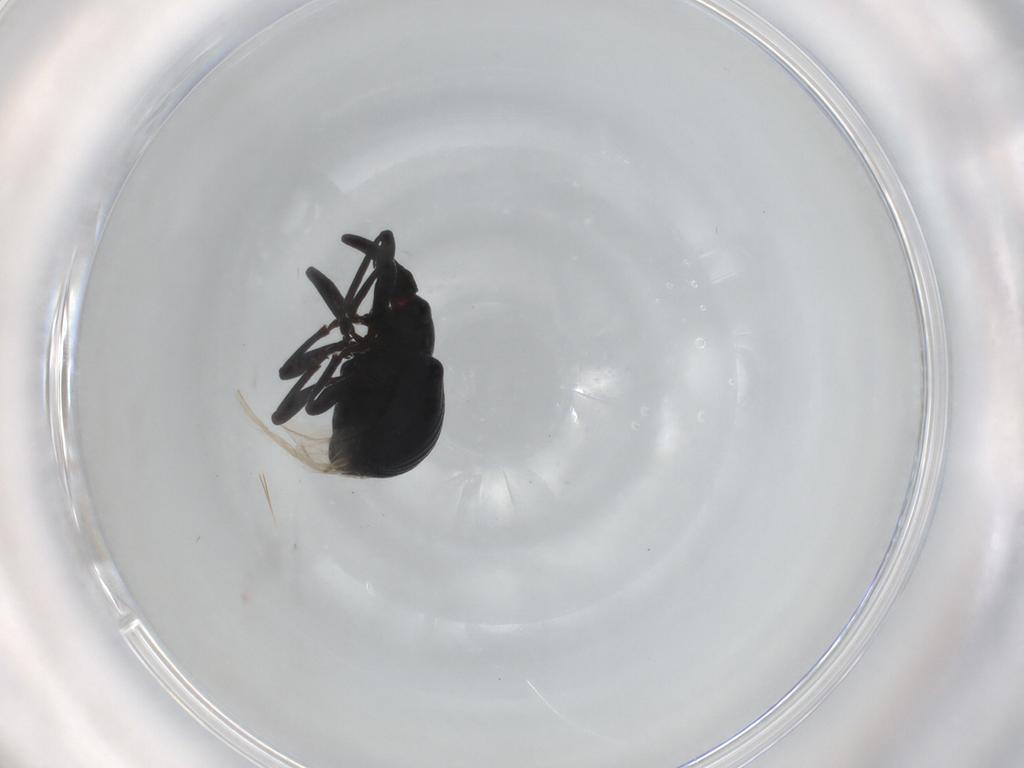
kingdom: Animalia
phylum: Arthropoda
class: Insecta
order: Coleoptera
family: Apionidae
